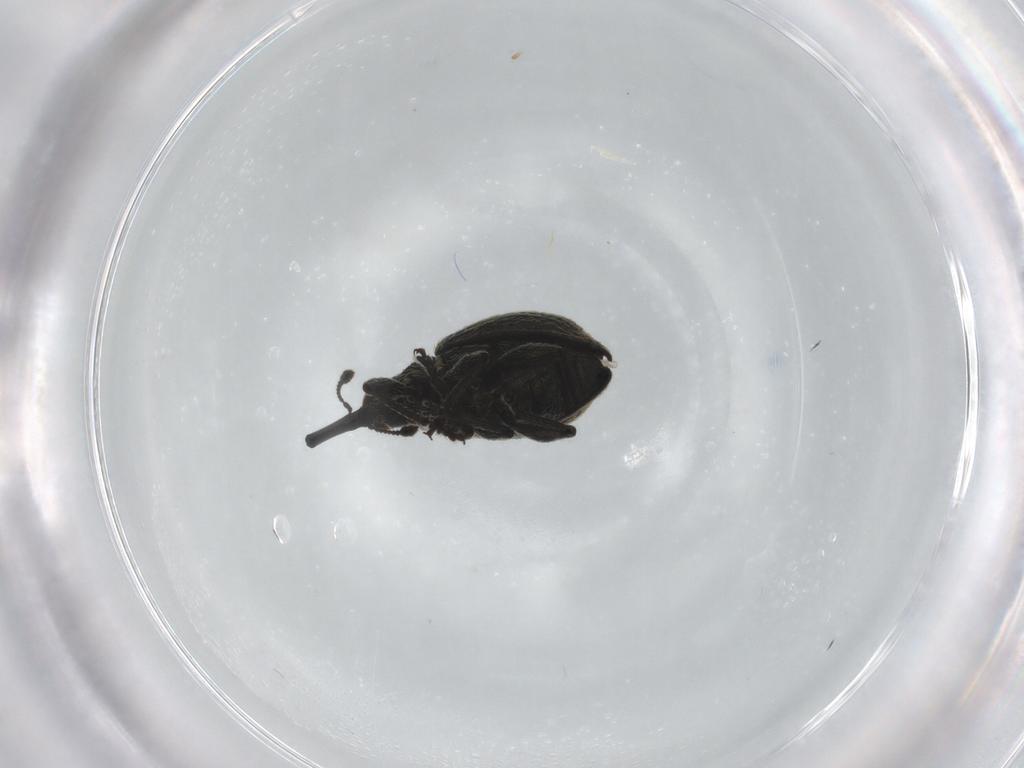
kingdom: Animalia
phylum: Arthropoda
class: Insecta
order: Coleoptera
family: Brentidae
